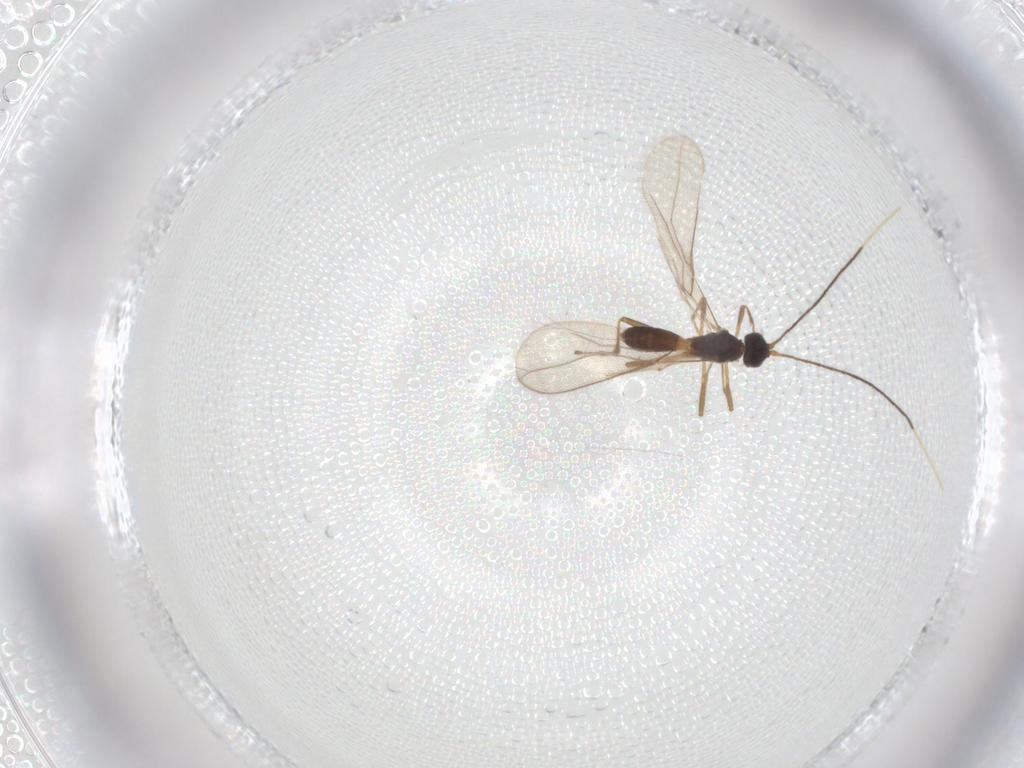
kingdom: Animalia
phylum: Arthropoda
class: Insecta
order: Hymenoptera
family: Braconidae
